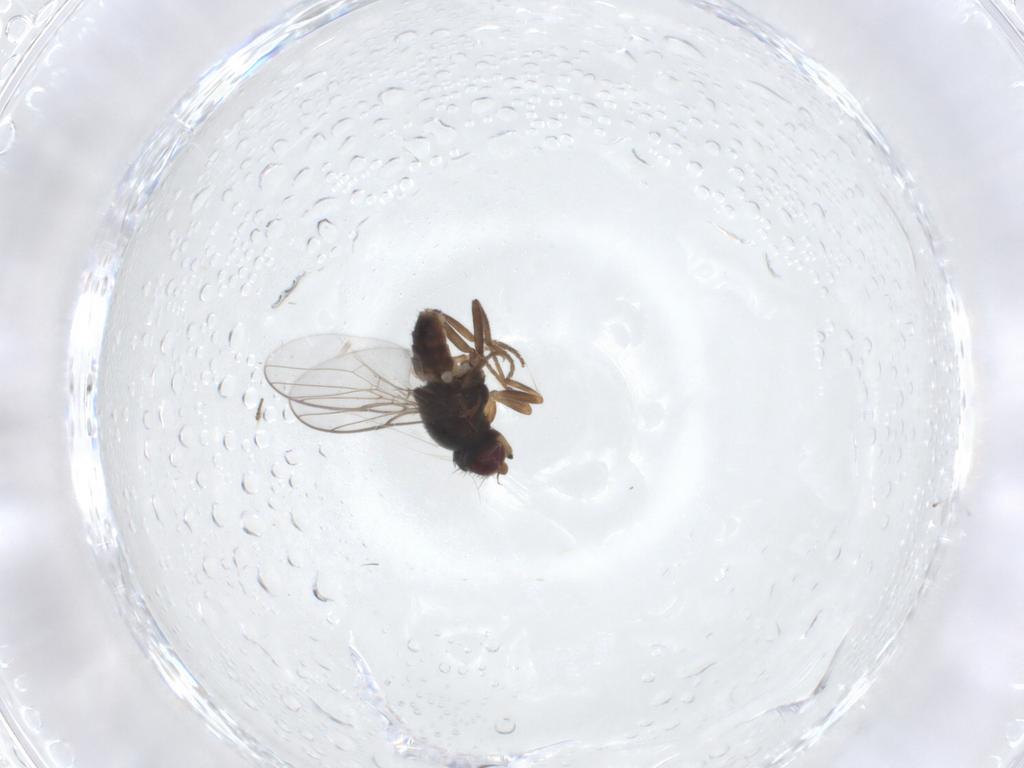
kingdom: Animalia
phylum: Arthropoda
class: Insecta
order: Diptera
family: Chloropidae
